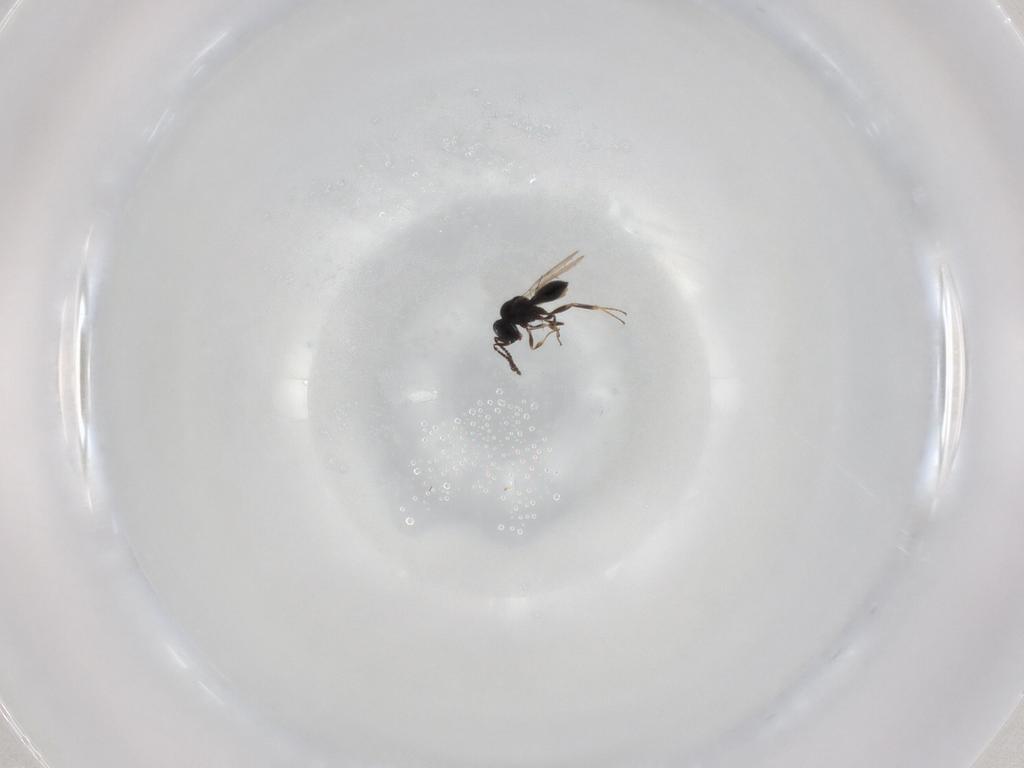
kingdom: Animalia
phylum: Arthropoda
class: Insecta
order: Hymenoptera
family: Scelionidae
